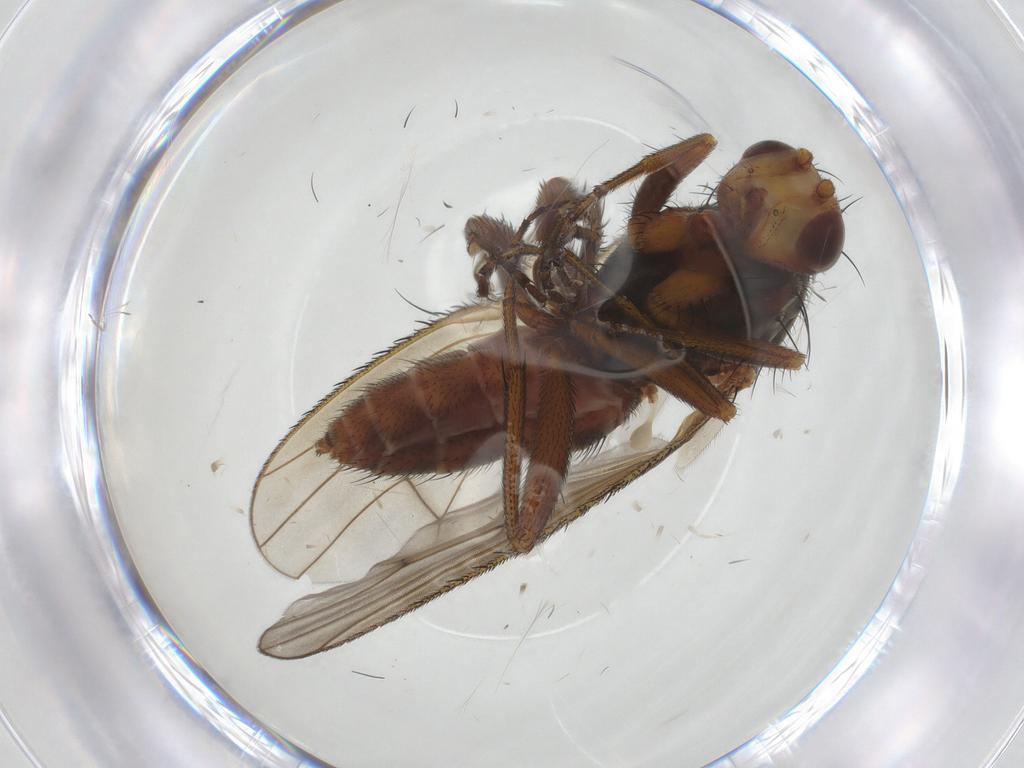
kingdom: Animalia
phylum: Arthropoda
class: Insecta
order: Diptera
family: Heleomyzidae
